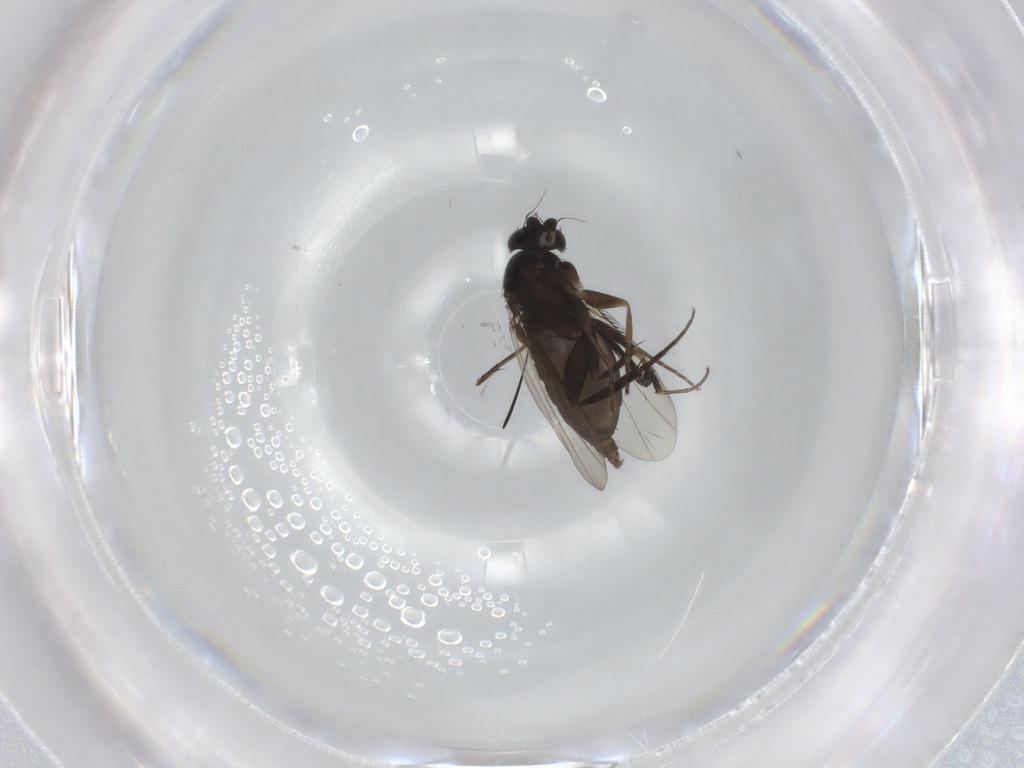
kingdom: Animalia
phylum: Arthropoda
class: Insecta
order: Diptera
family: Phoridae
